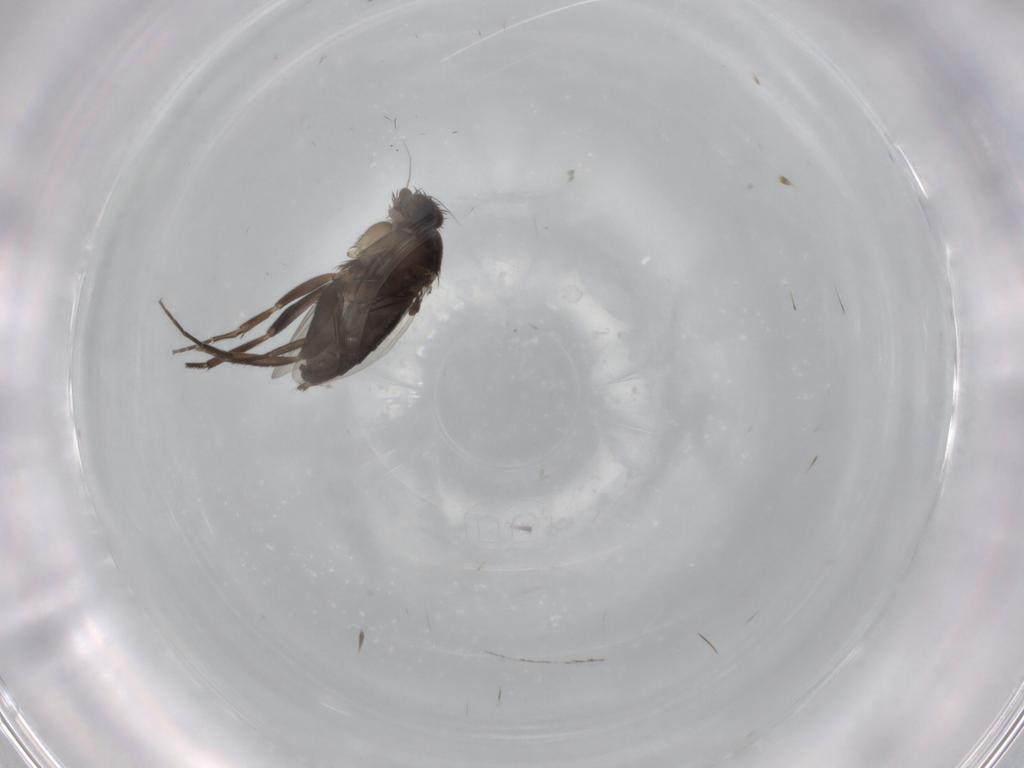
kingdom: Animalia
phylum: Arthropoda
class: Insecta
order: Diptera
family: Phoridae
